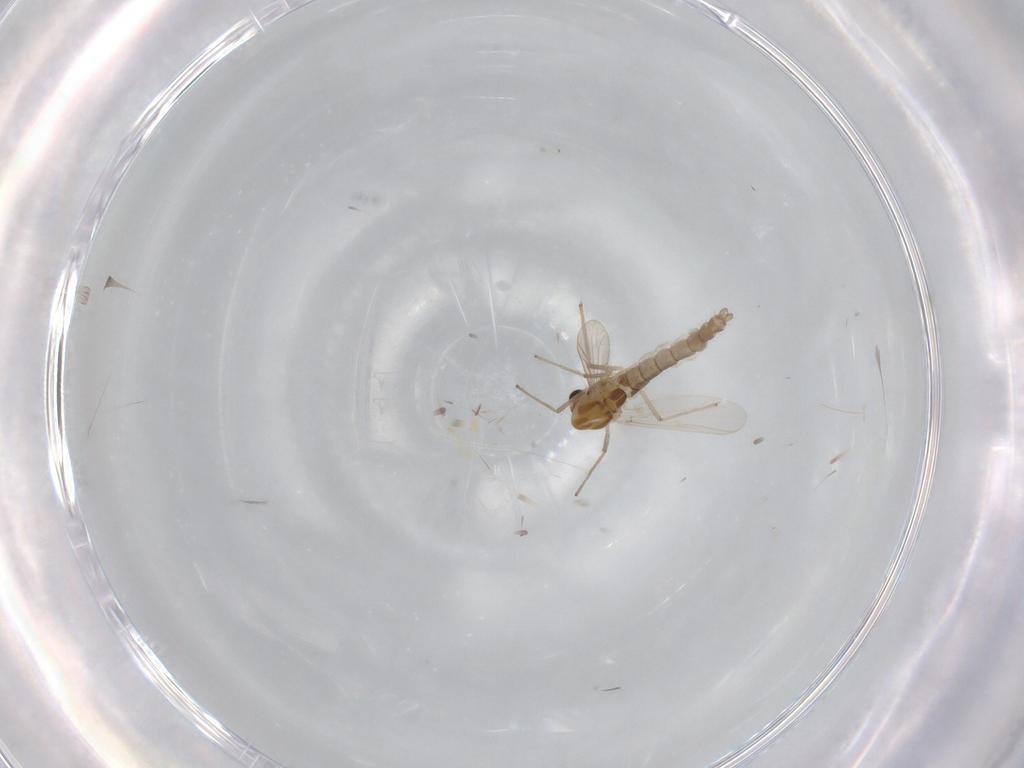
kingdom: Animalia
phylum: Arthropoda
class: Insecta
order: Diptera
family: Chironomidae
